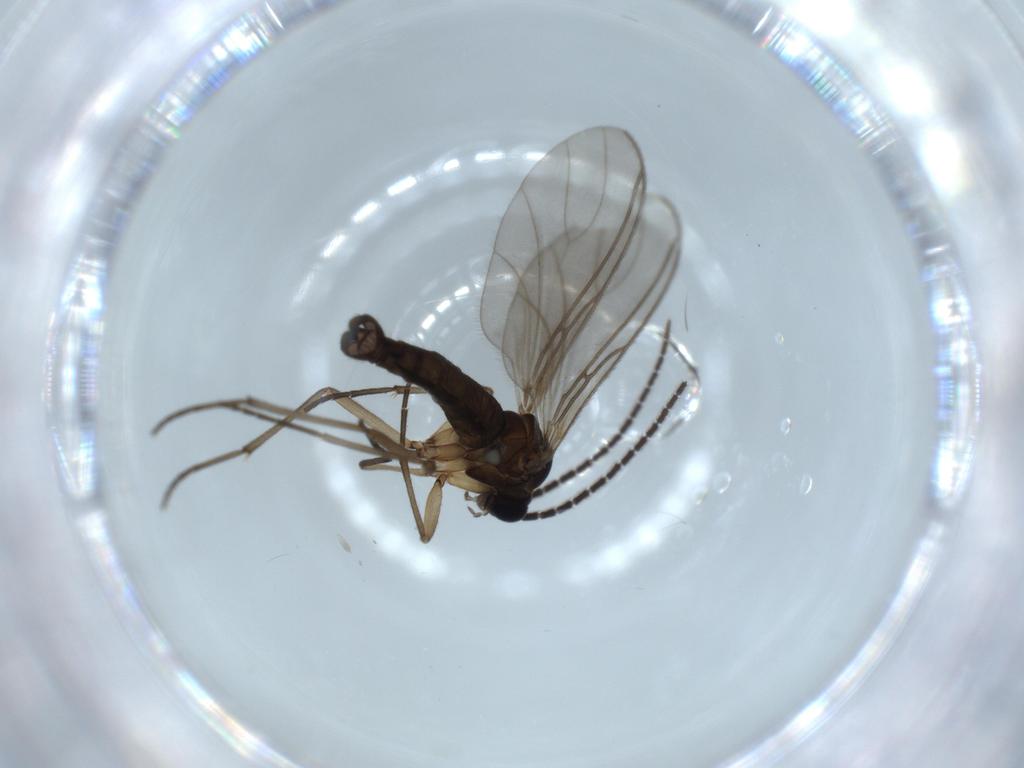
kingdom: Animalia
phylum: Arthropoda
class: Insecta
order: Diptera
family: Sciaridae
